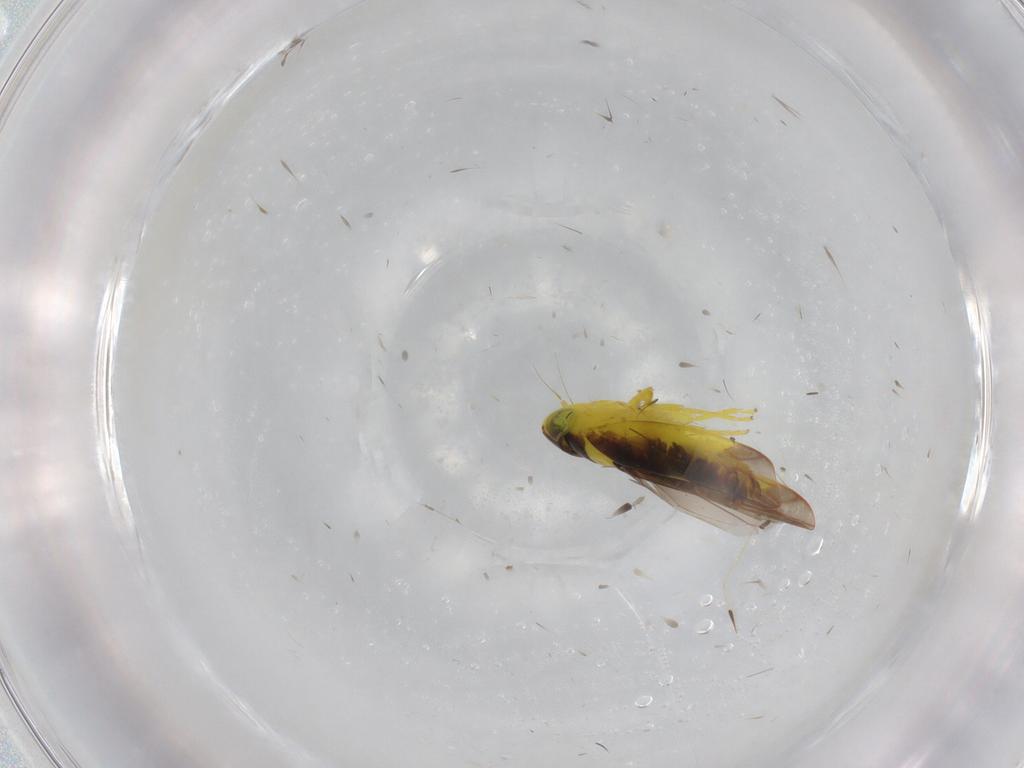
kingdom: Animalia
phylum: Arthropoda
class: Insecta
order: Hemiptera
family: Cicadellidae
